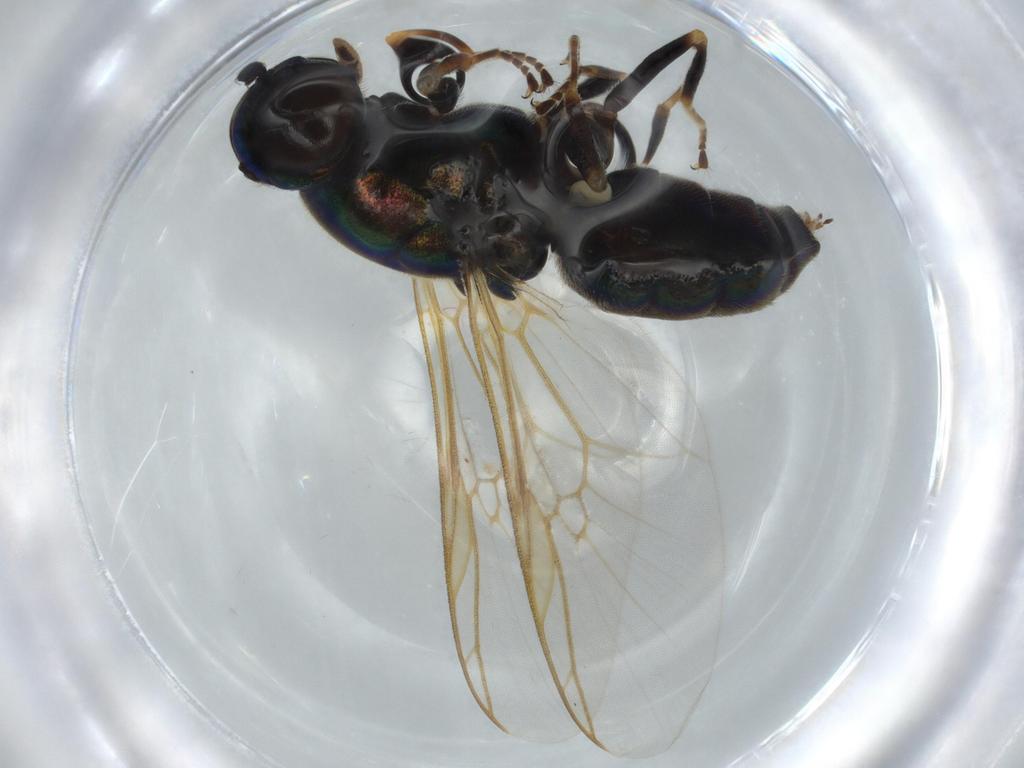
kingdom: Animalia
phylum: Arthropoda
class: Insecta
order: Diptera
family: Stratiomyidae
